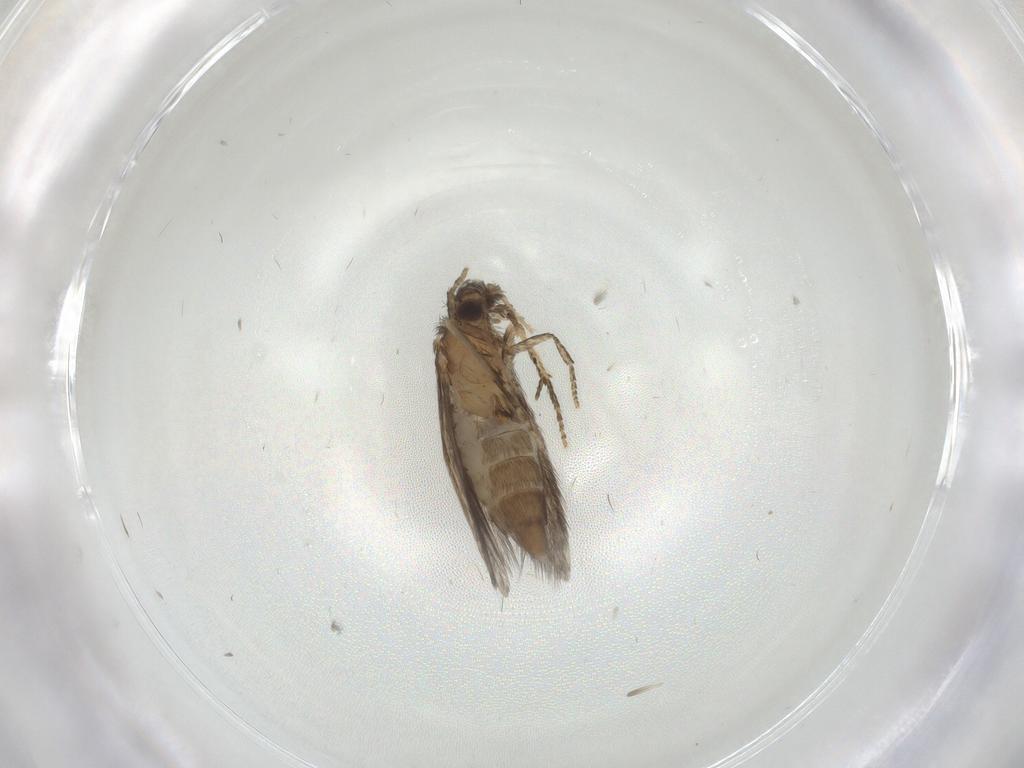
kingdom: Animalia
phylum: Arthropoda
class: Insecta
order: Trichoptera
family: Hydroptilidae
